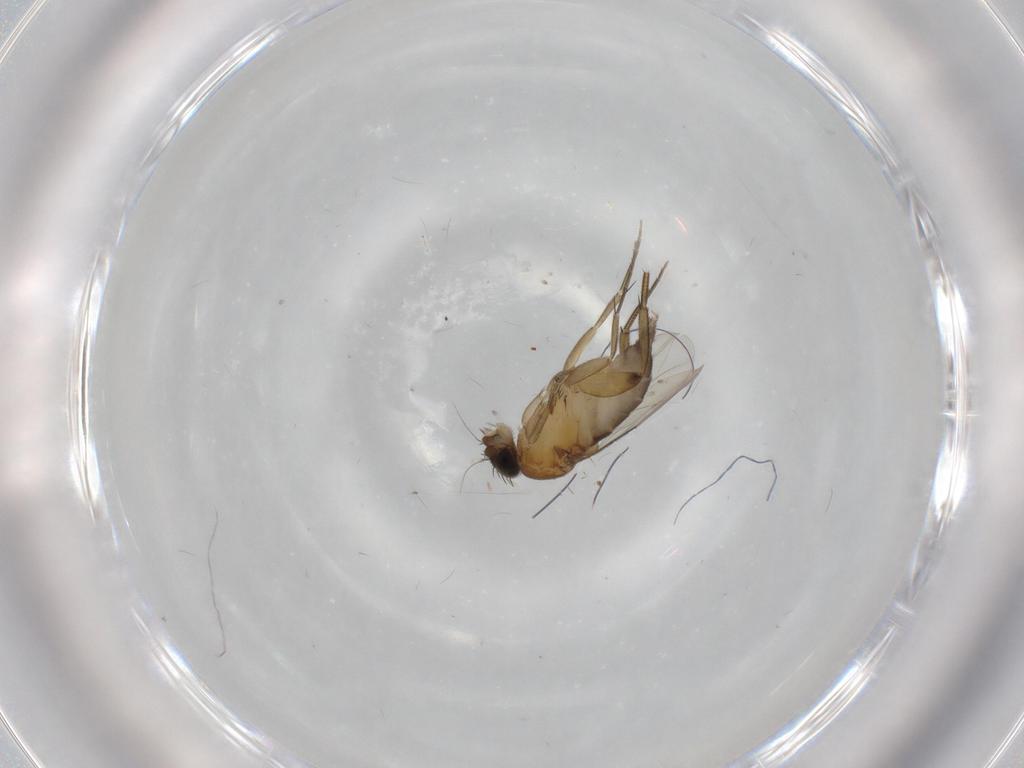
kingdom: Animalia
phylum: Arthropoda
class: Insecta
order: Diptera
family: Phoridae
